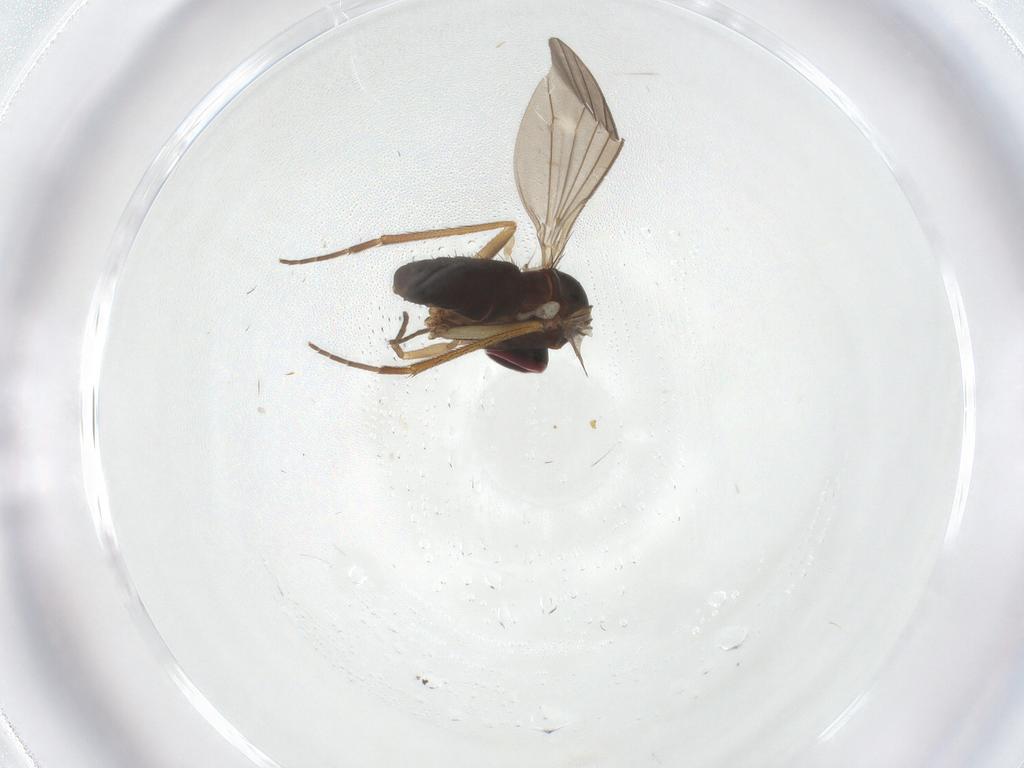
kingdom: Animalia
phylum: Arthropoda
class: Insecta
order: Diptera
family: Dolichopodidae
